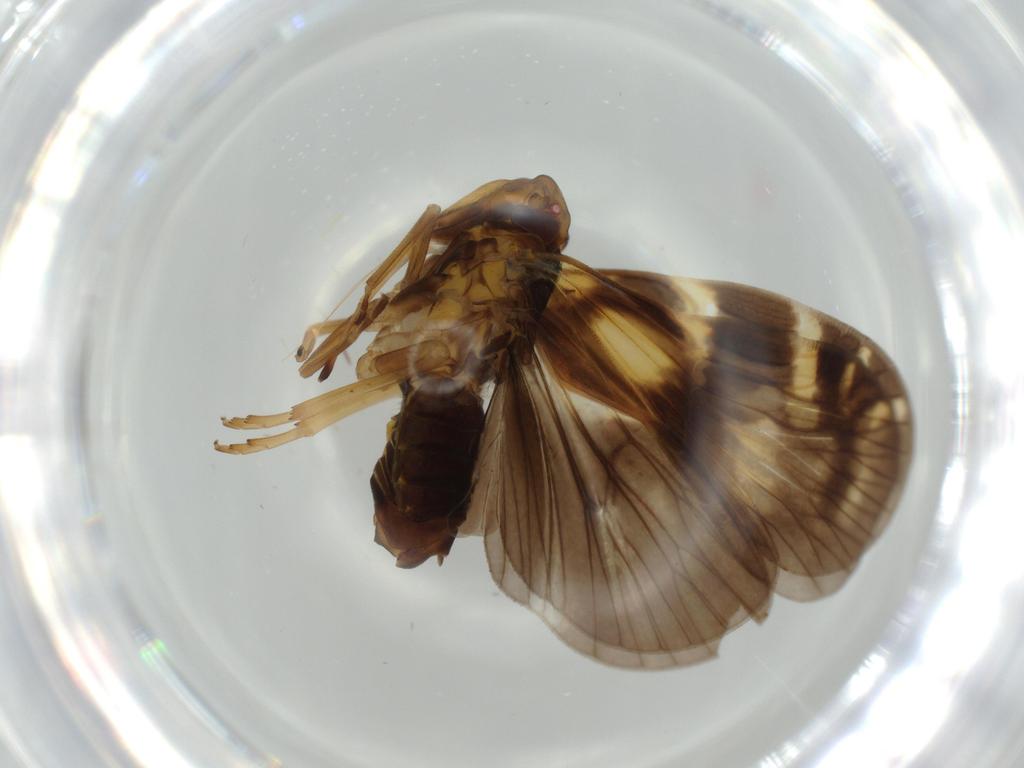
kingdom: Animalia
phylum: Arthropoda
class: Insecta
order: Hemiptera
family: Cixiidae
